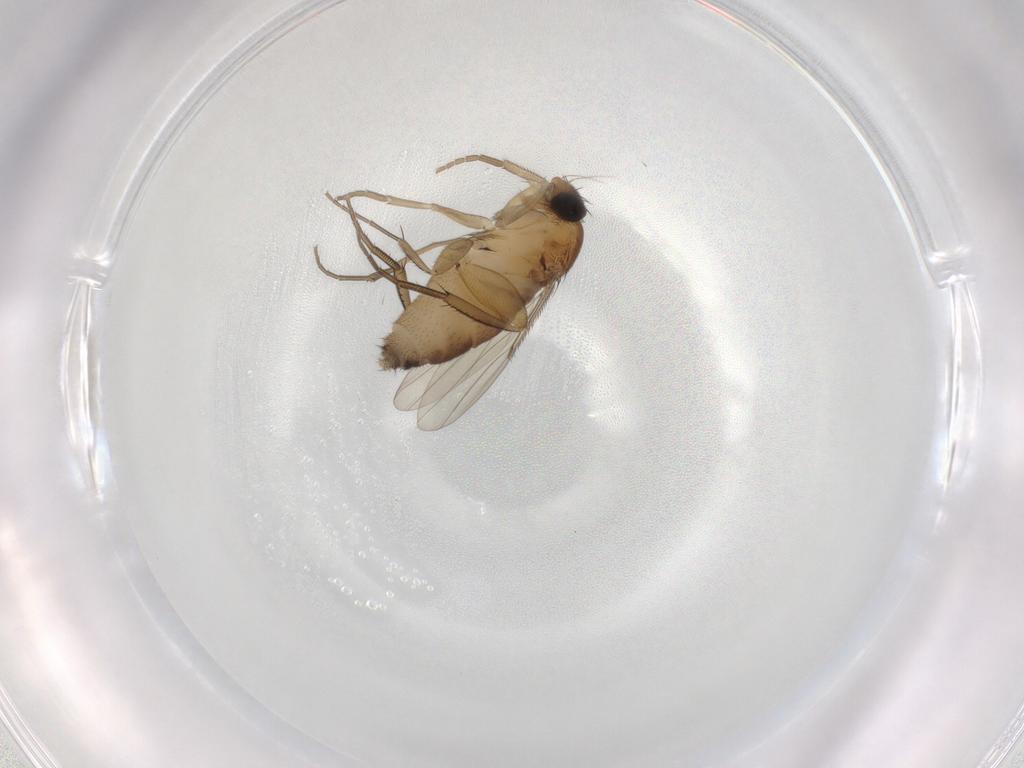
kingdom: Animalia
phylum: Arthropoda
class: Insecta
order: Diptera
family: Phoridae
